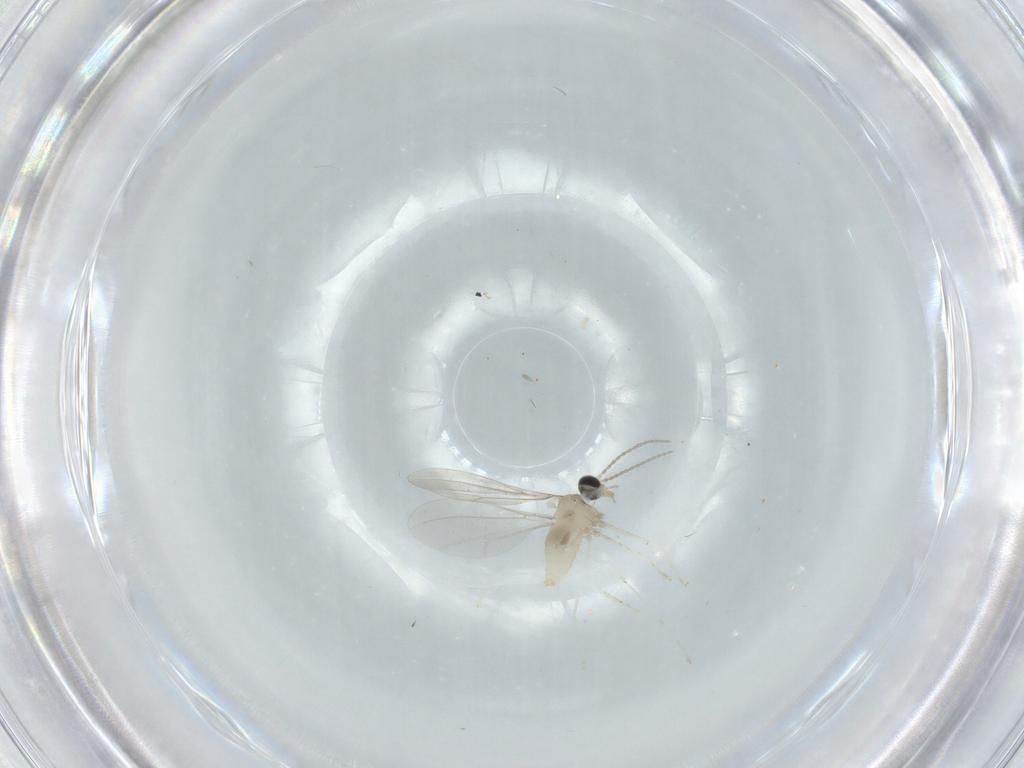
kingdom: Animalia
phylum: Arthropoda
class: Insecta
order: Diptera
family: Cecidomyiidae
